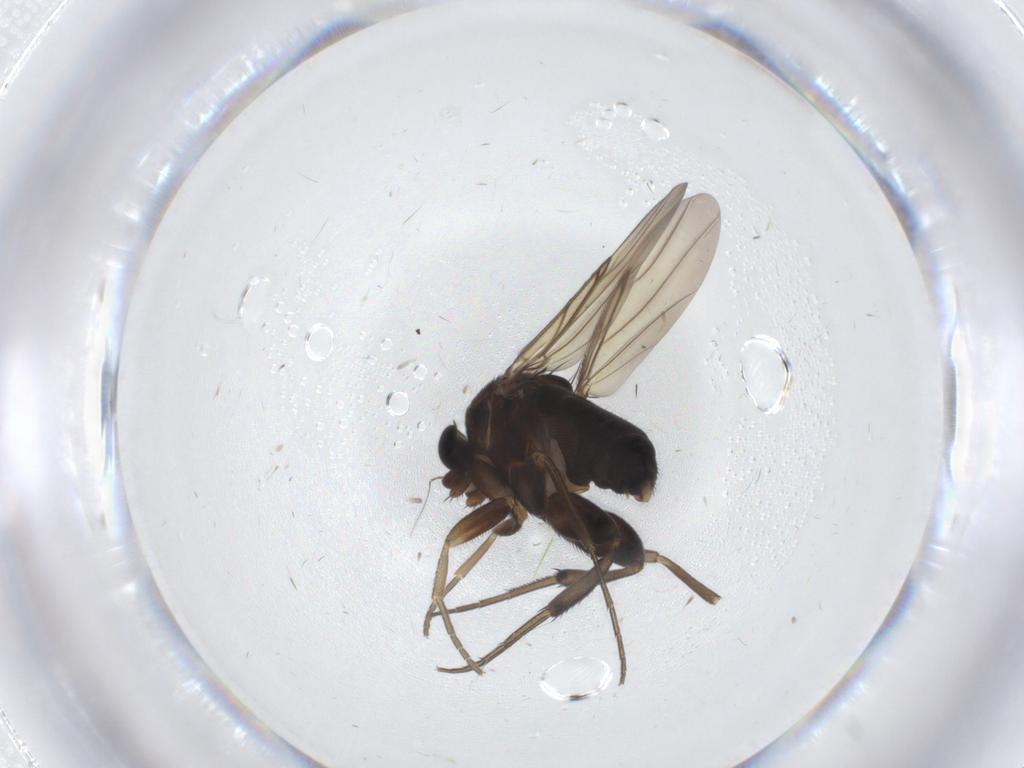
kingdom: Animalia
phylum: Arthropoda
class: Insecta
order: Diptera
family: Phoridae
